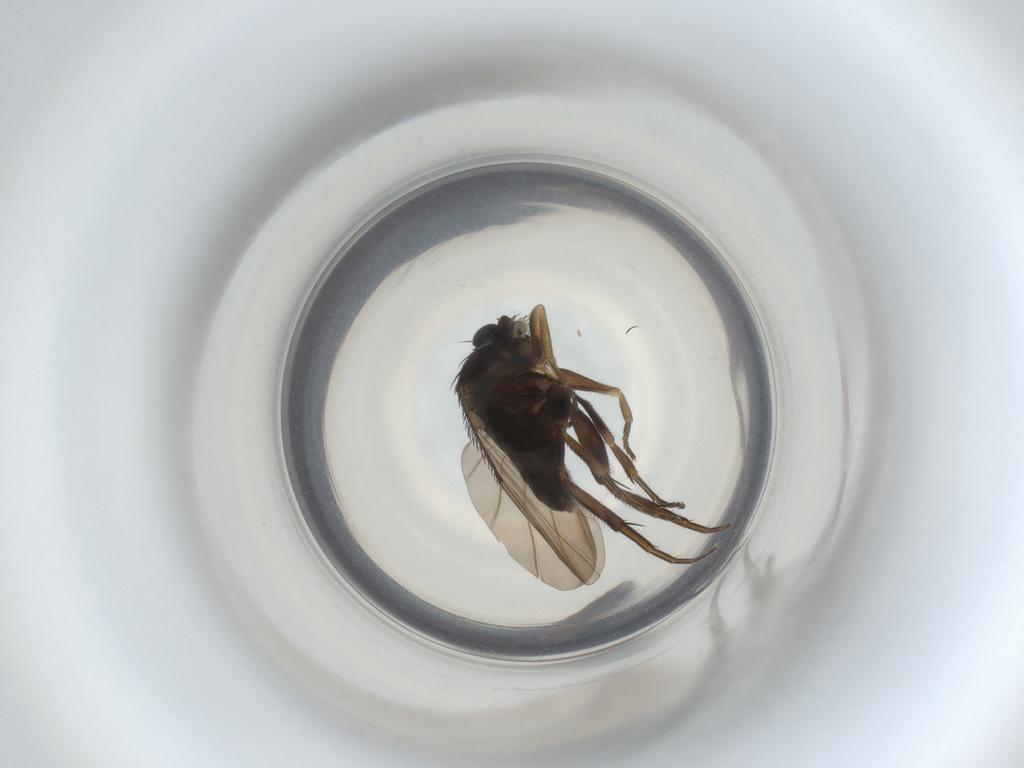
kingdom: Animalia
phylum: Arthropoda
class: Insecta
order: Diptera
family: Phoridae
